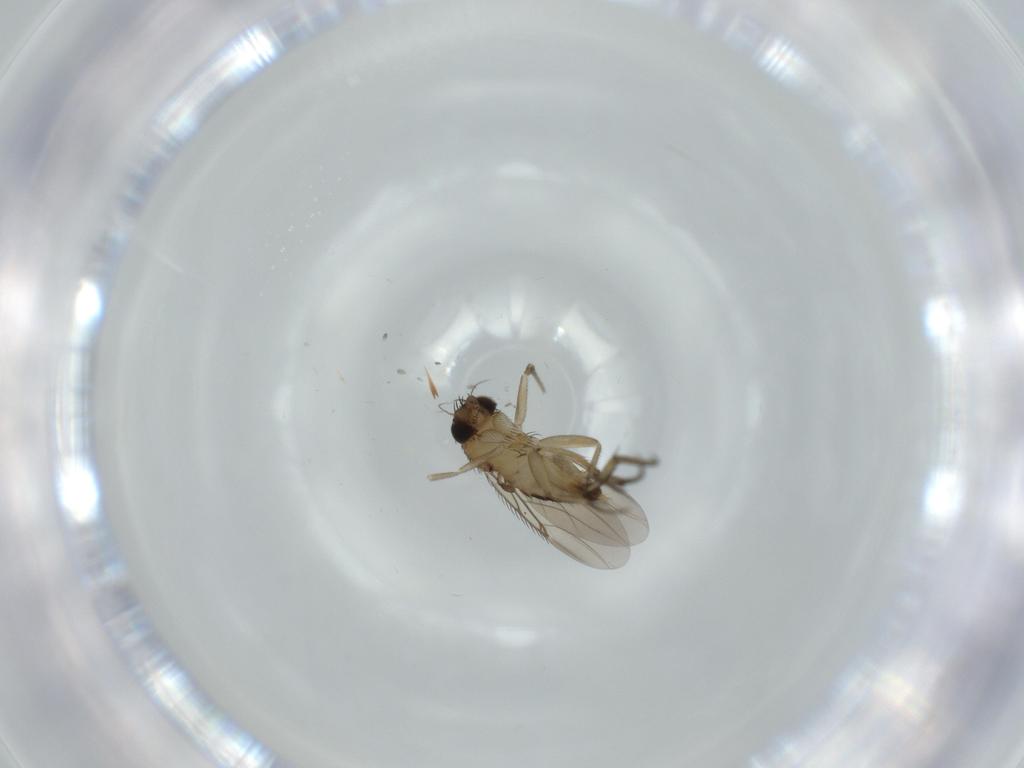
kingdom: Animalia
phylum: Arthropoda
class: Insecta
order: Diptera
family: Phoridae
